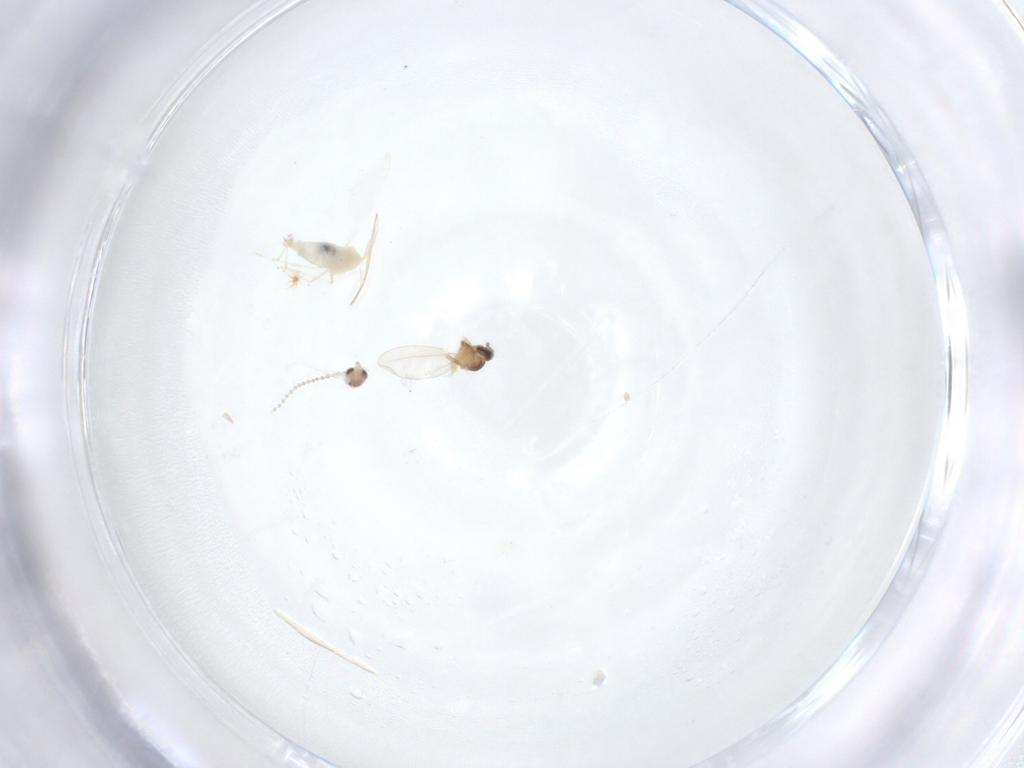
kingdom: Animalia
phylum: Arthropoda
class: Insecta
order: Diptera
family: Cecidomyiidae
